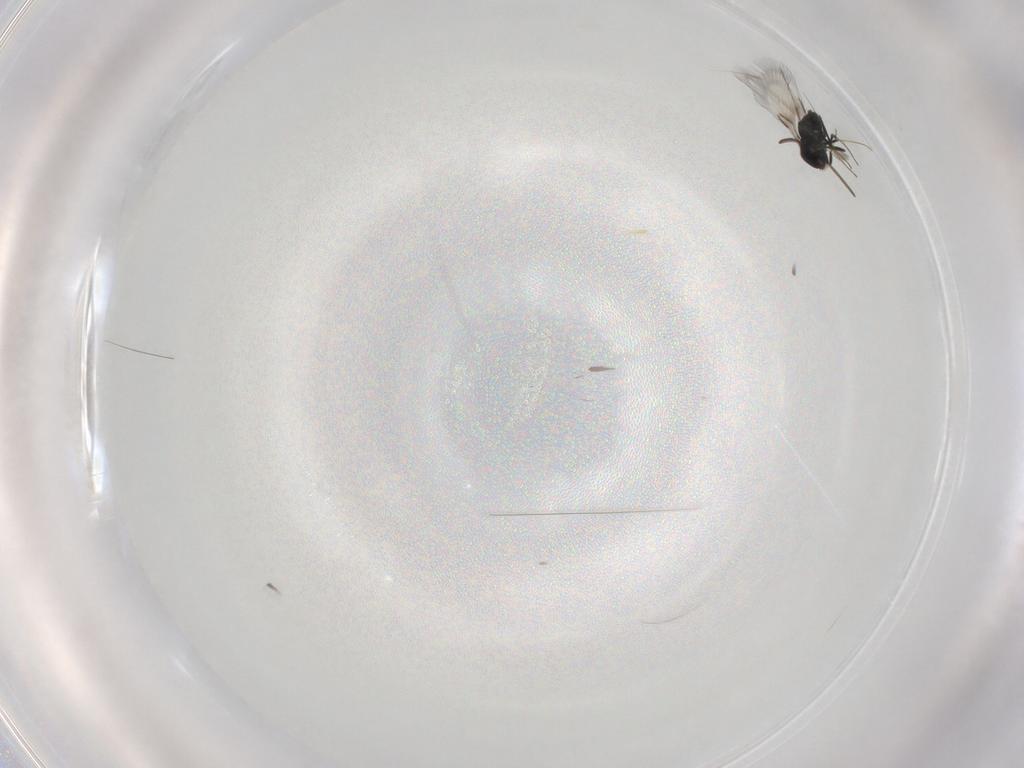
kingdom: Animalia
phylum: Arthropoda
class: Insecta
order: Hymenoptera
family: Signiphoridae
